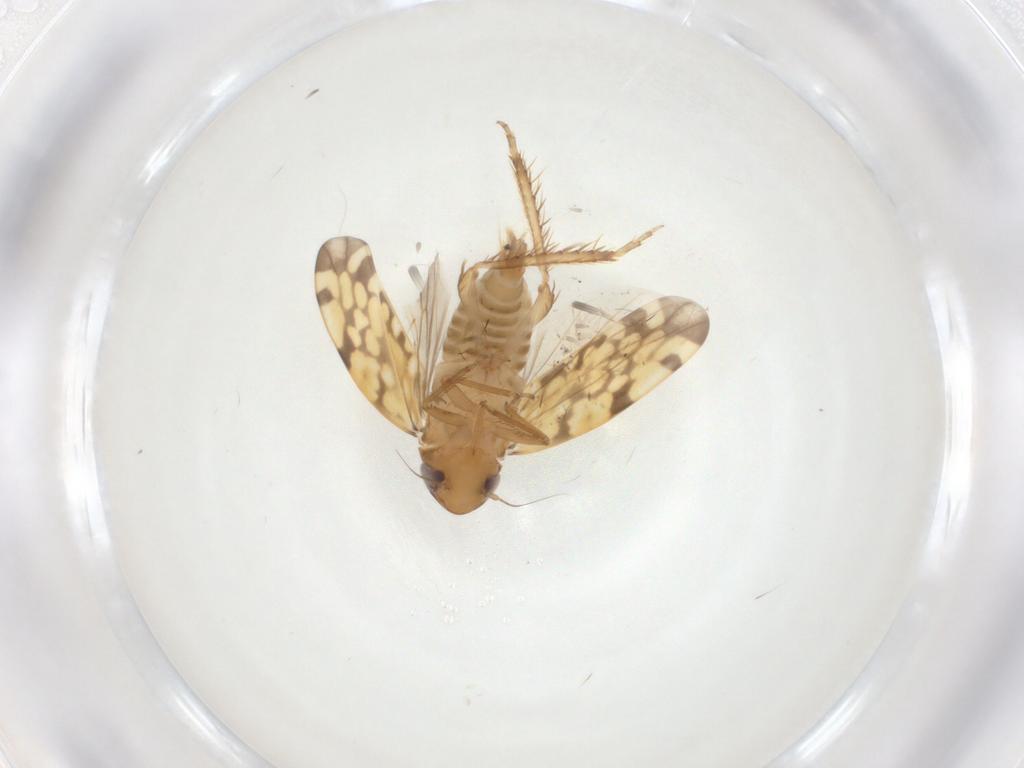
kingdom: Animalia
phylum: Arthropoda
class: Insecta
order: Hemiptera
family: Cicadellidae
